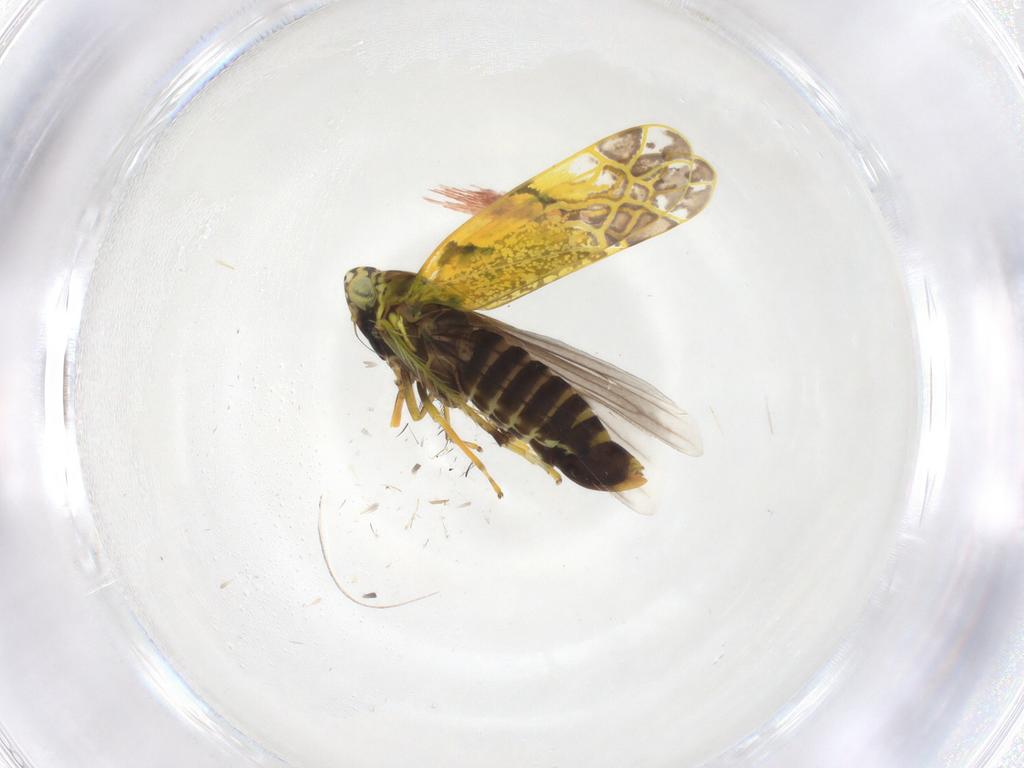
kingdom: Animalia
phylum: Arthropoda
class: Insecta
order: Hemiptera
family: Cicadellidae
